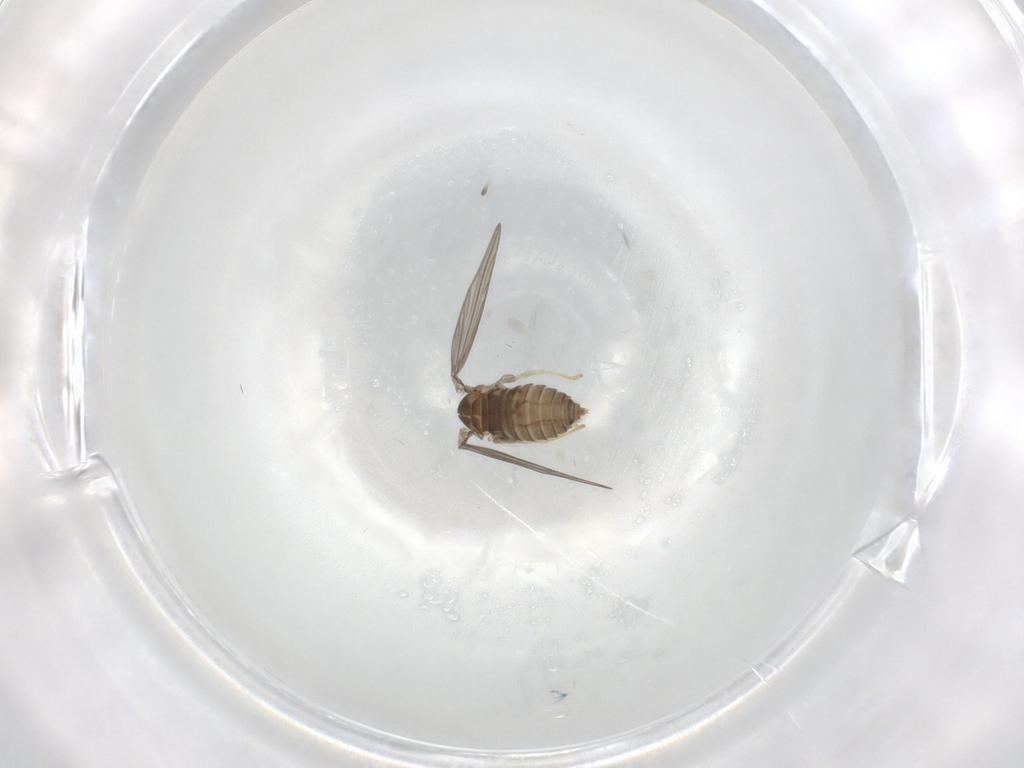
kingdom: Animalia
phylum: Arthropoda
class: Insecta
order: Diptera
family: Psychodidae
